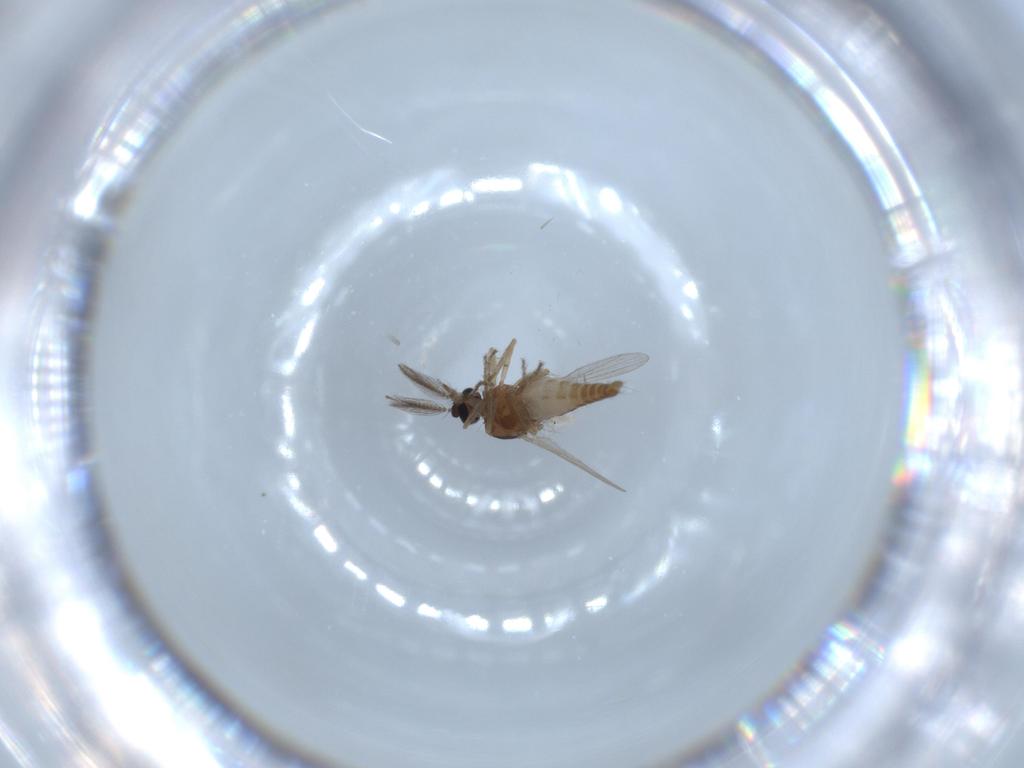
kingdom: Animalia
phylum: Arthropoda
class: Insecta
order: Diptera
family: Ceratopogonidae
